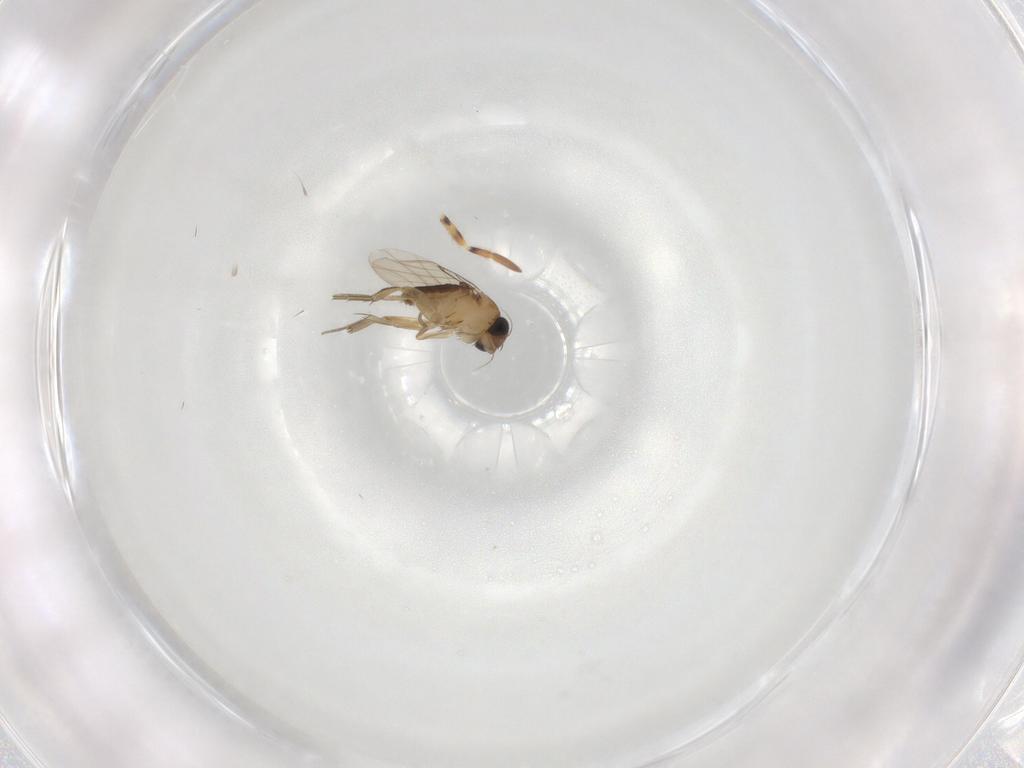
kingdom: Animalia
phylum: Arthropoda
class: Insecta
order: Diptera
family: Phoridae
